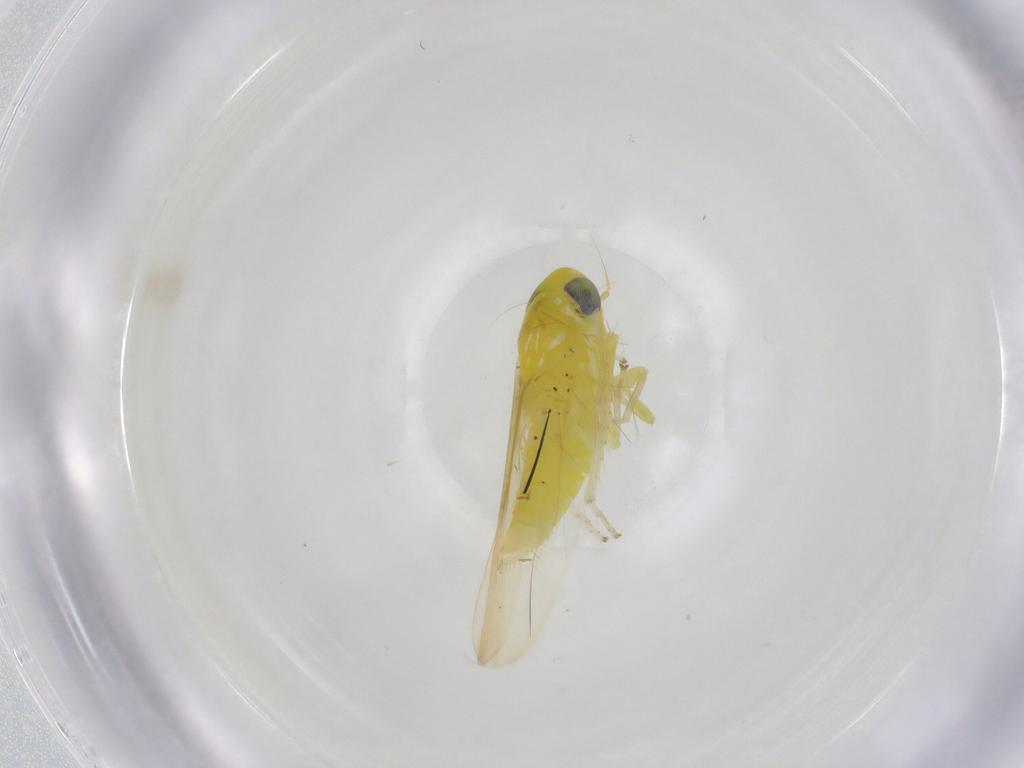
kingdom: Animalia
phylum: Arthropoda
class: Insecta
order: Hemiptera
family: Cicadellidae
